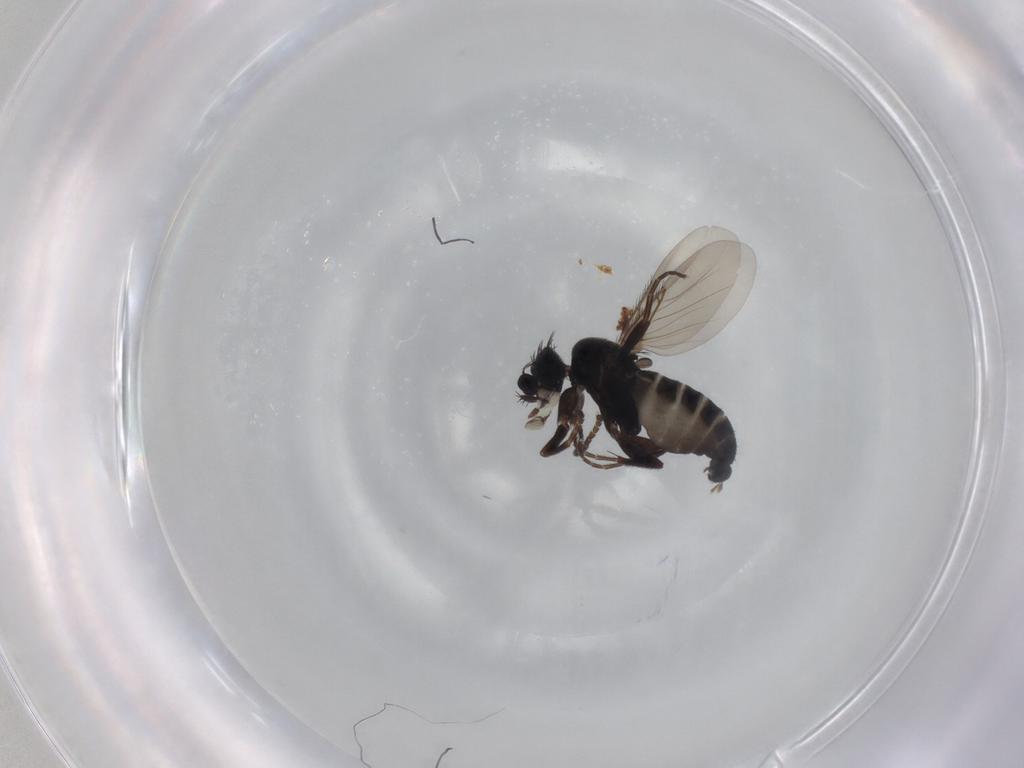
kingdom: Animalia
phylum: Arthropoda
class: Insecta
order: Diptera
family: Phoridae
